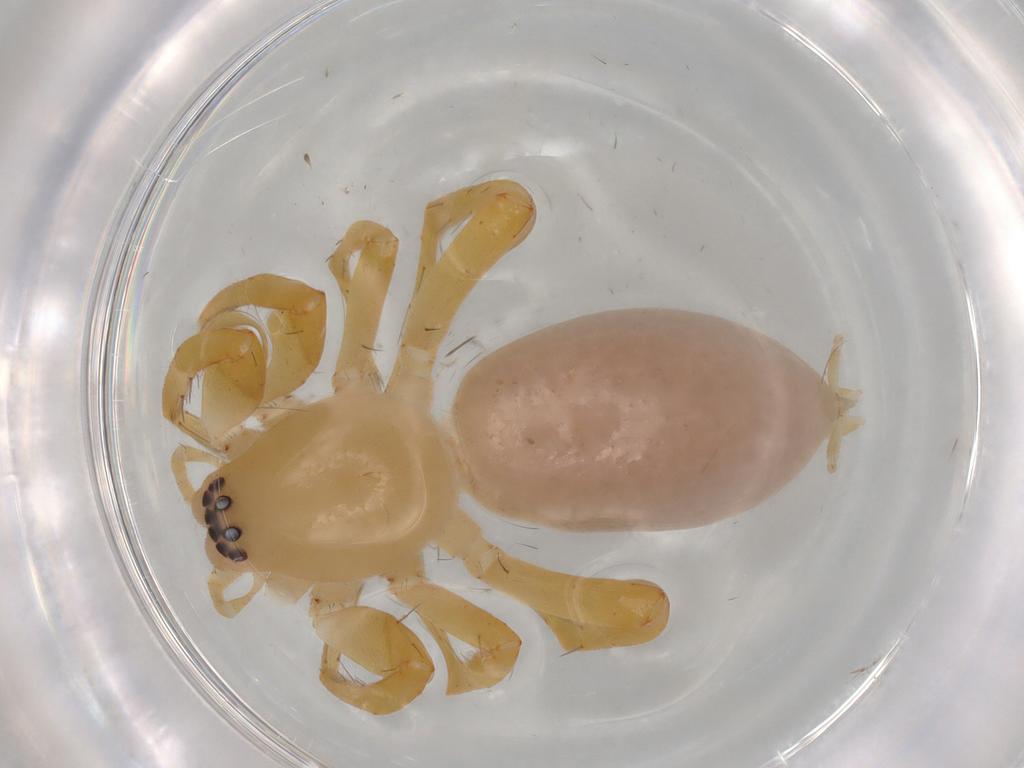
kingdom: Animalia
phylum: Arthropoda
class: Arachnida
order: Araneae
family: Clubionidae
